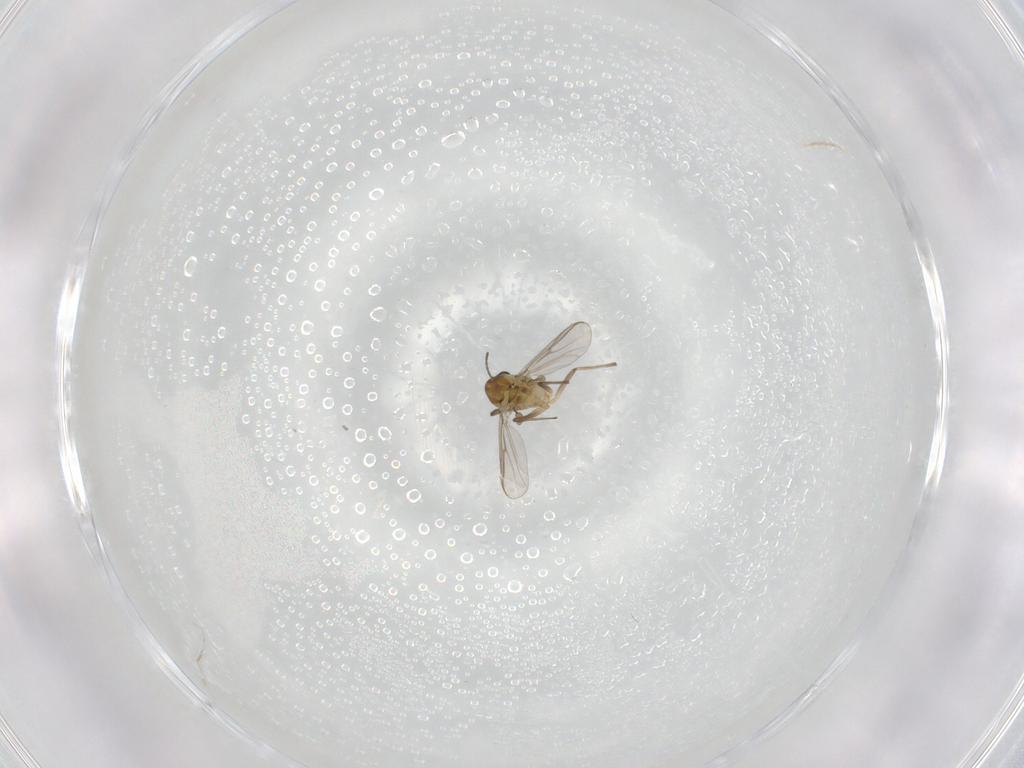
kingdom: Animalia
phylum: Arthropoda
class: Insecta
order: Diptera
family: Chironomidae
